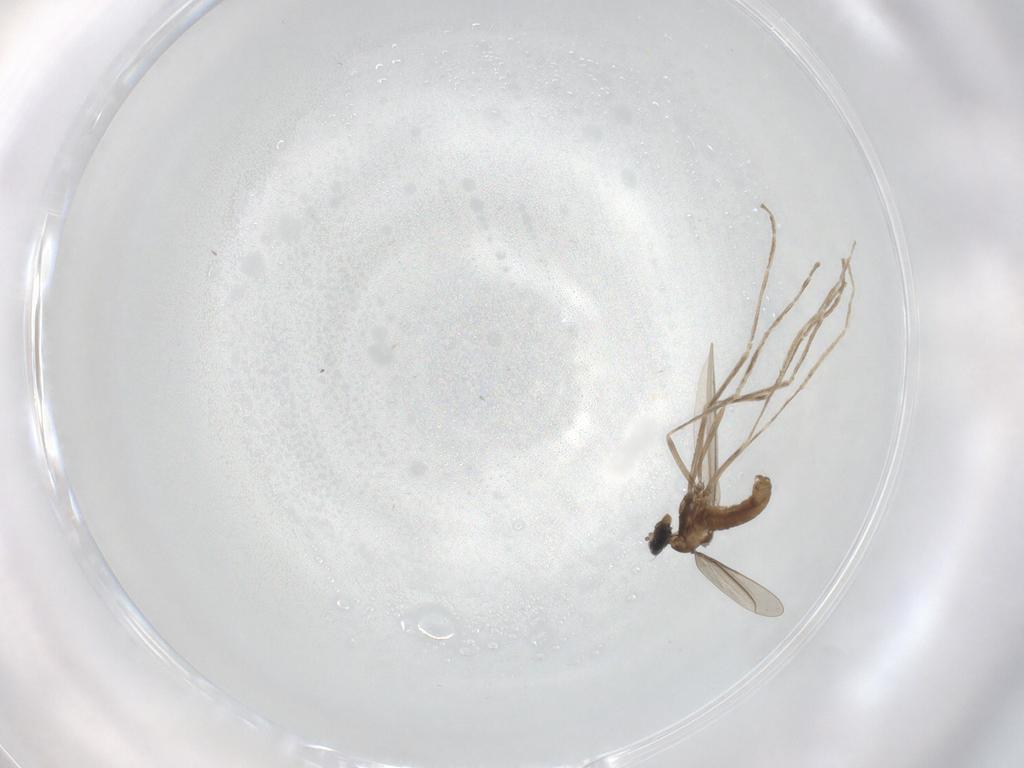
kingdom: Animalia
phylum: Arthropoda
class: Insecta
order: Diptera
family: Cecidomyiidae
